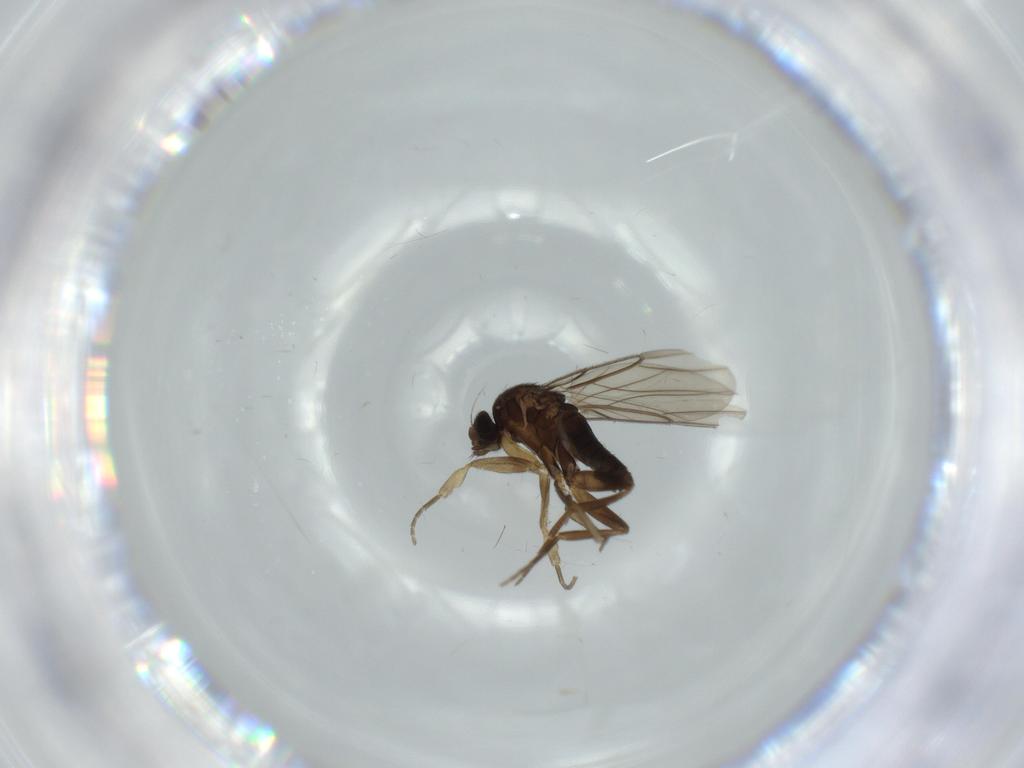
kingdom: Animalia
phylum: Arthropoda
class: Insecta
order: Diptera
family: Phoridae
